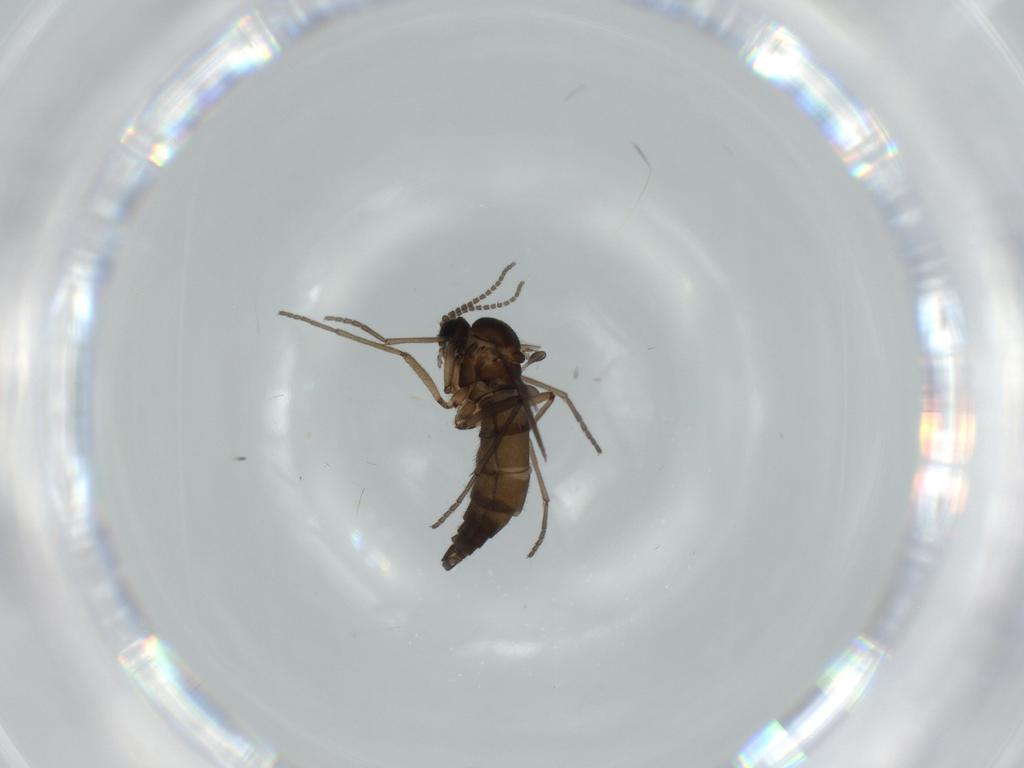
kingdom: Animalia
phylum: Arthropoda
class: Insecta
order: Diptera
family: Sciaridae
